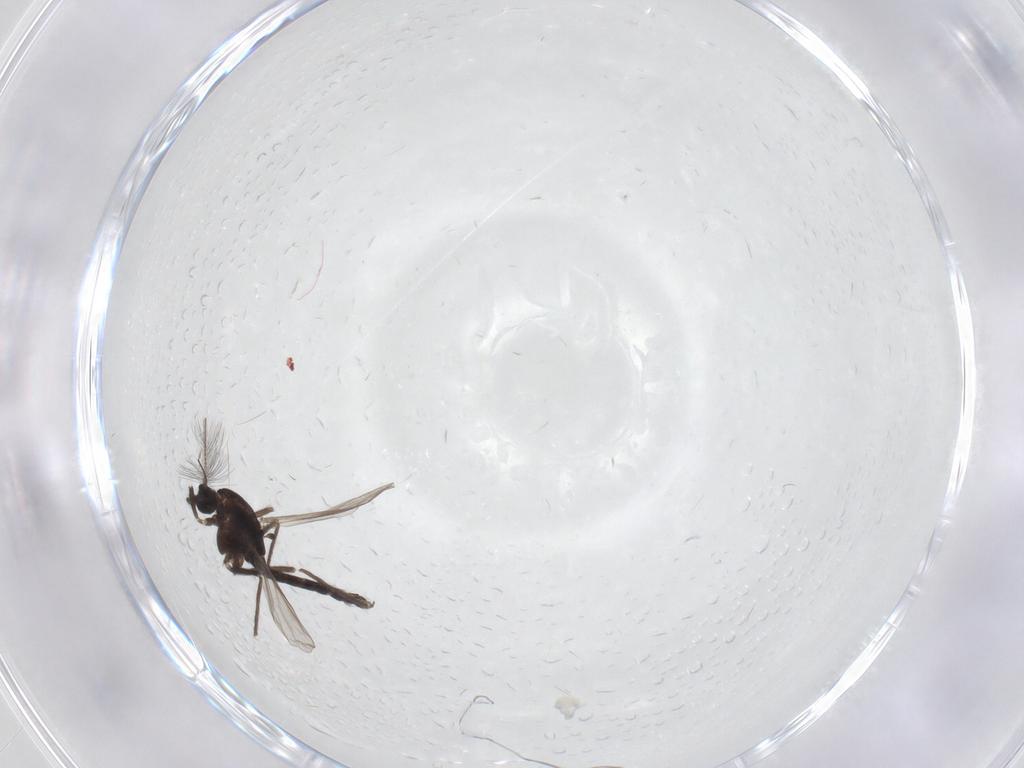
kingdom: Animalia
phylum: Arthropoda
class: Insecta
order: Diptera
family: Chironomidae
